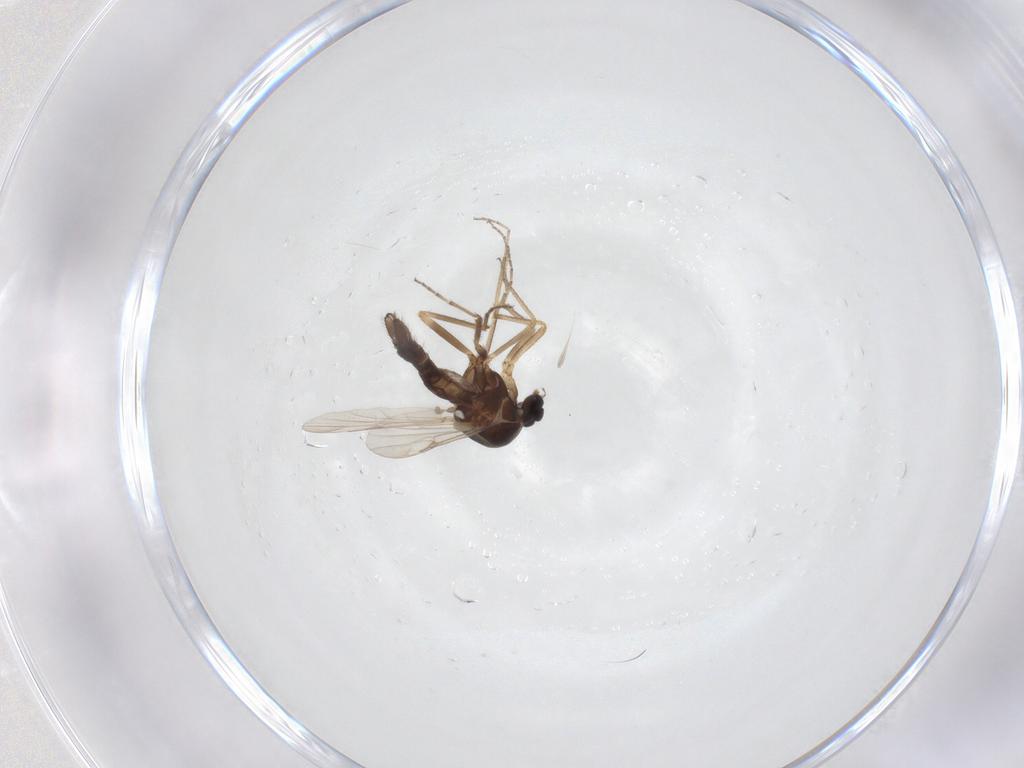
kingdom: Animalia
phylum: Arthropoda
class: Insecta
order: Diptera
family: Ceratopogonidae
